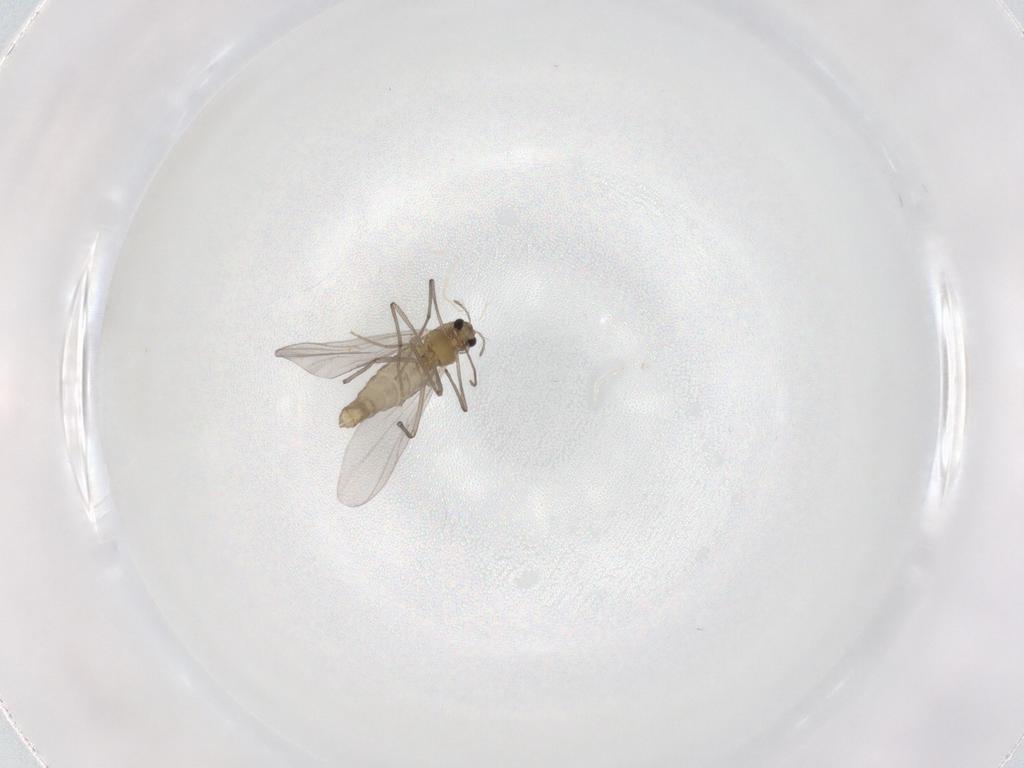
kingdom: Animalia
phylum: Arthropoda
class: Insecta
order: Diptera
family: Chironomidae
